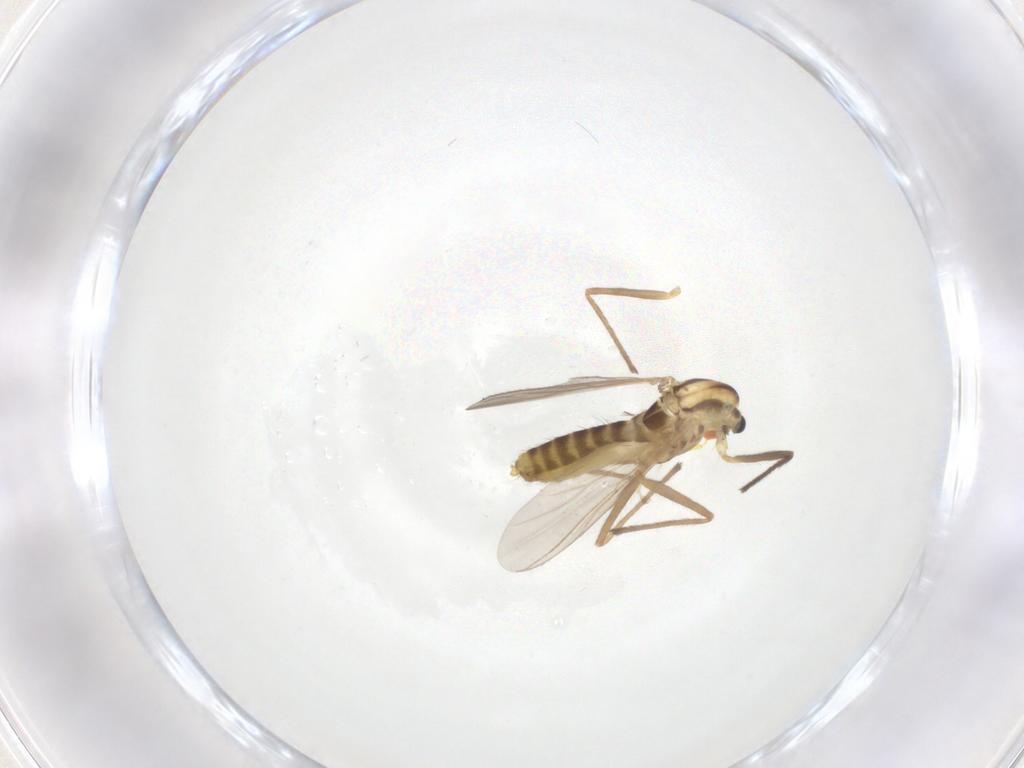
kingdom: Animalia
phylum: Arthropoda
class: Insecta
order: Diptera
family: Chironomidae
